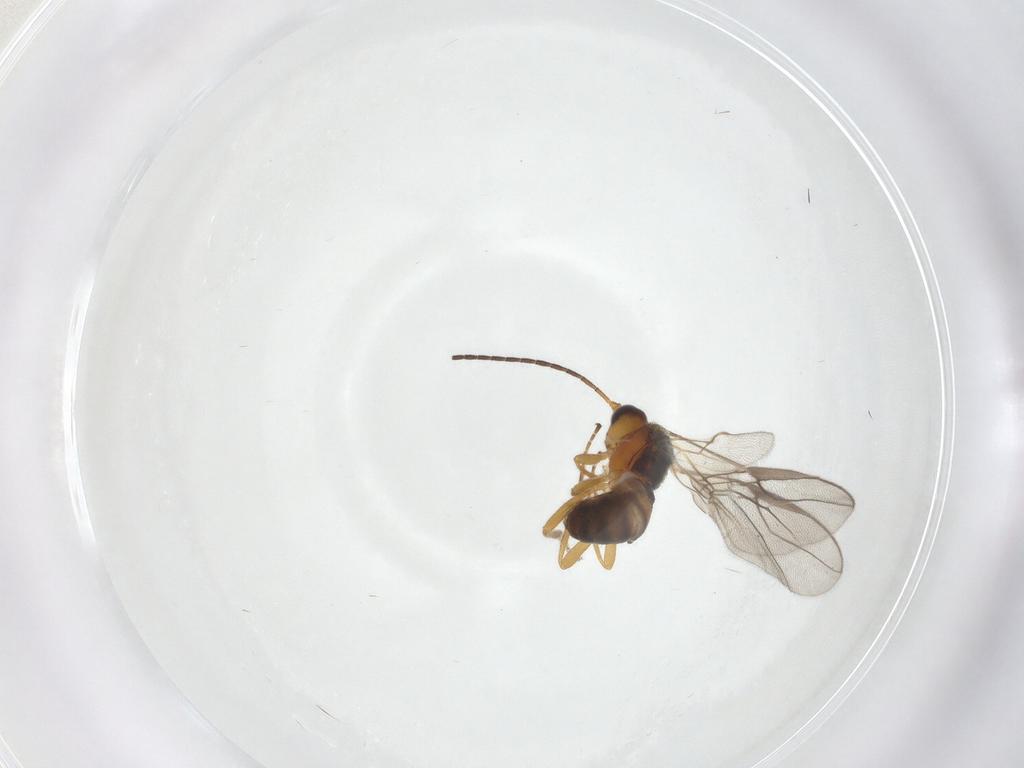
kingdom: Animalia
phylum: Arthropoda
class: Insecta
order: Hymenoptera
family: Braconidae
